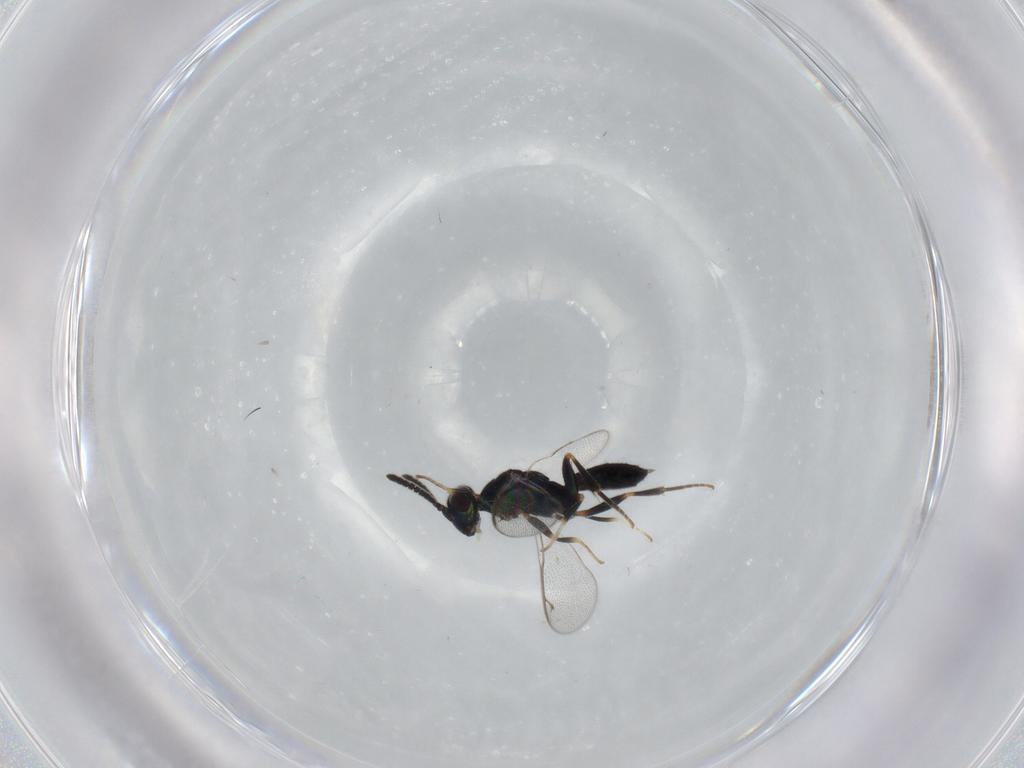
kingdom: Animalia
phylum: Arthropoda
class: Insecta
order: Hymenoptera
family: Cleonyminae
